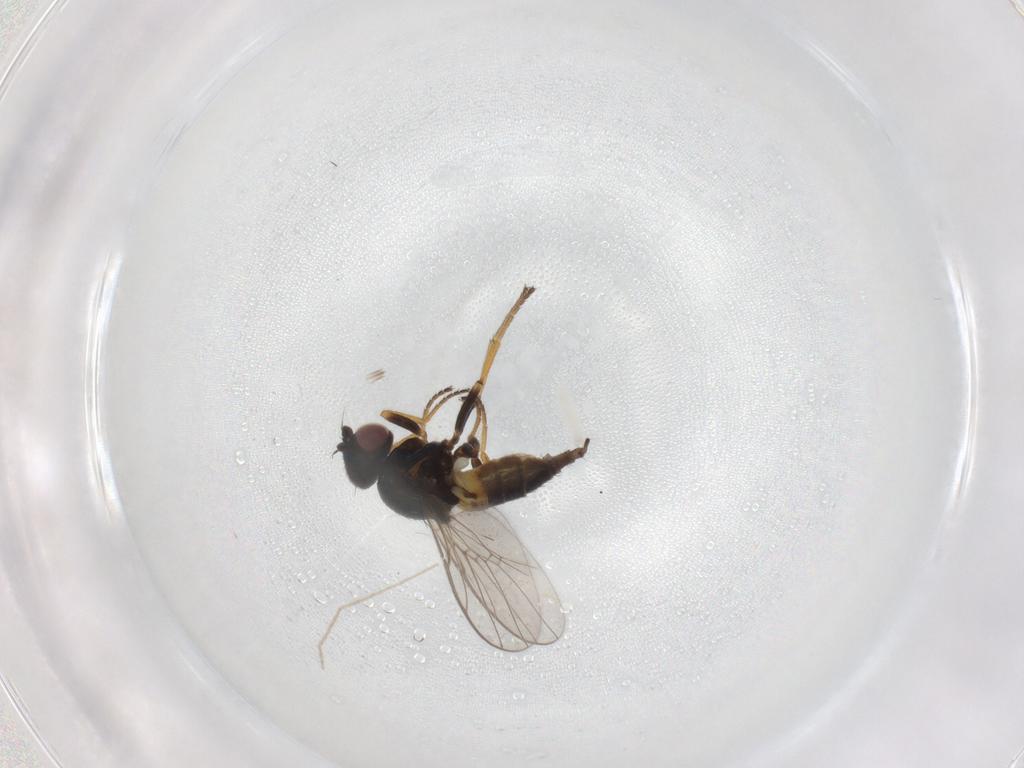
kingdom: Animalia
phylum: Arthropoda
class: Insecta
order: Diptera
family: Chloropidae
